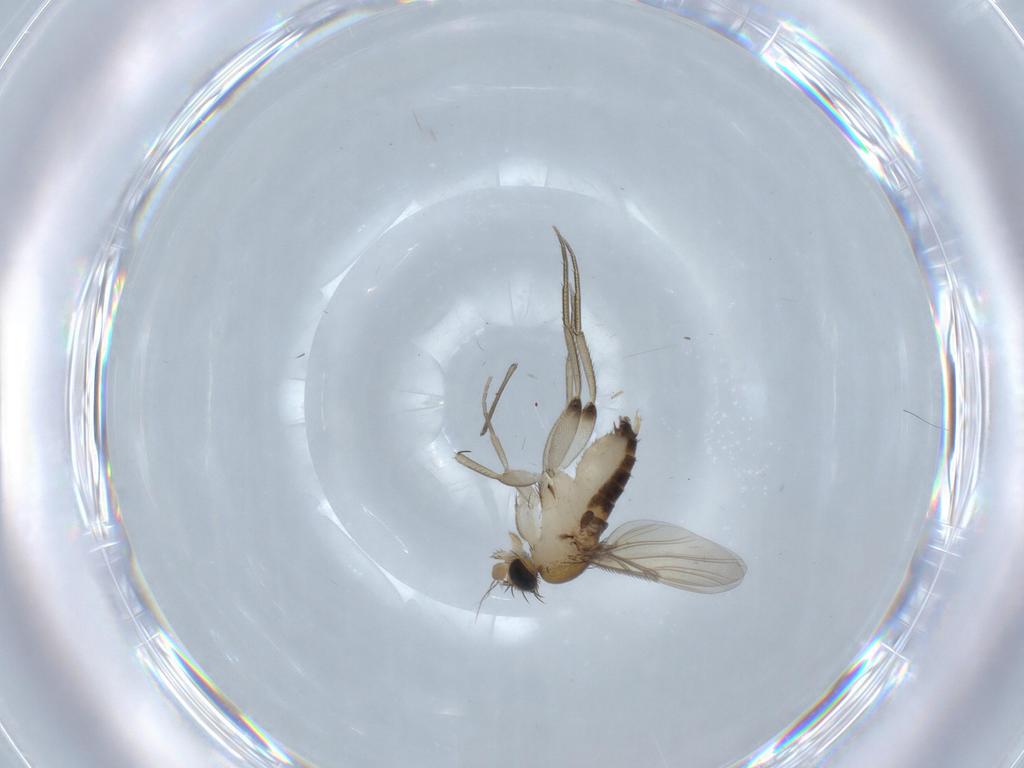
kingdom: Animalia
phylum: Arthropoda
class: Insecta
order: Diptera
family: Phoridae
